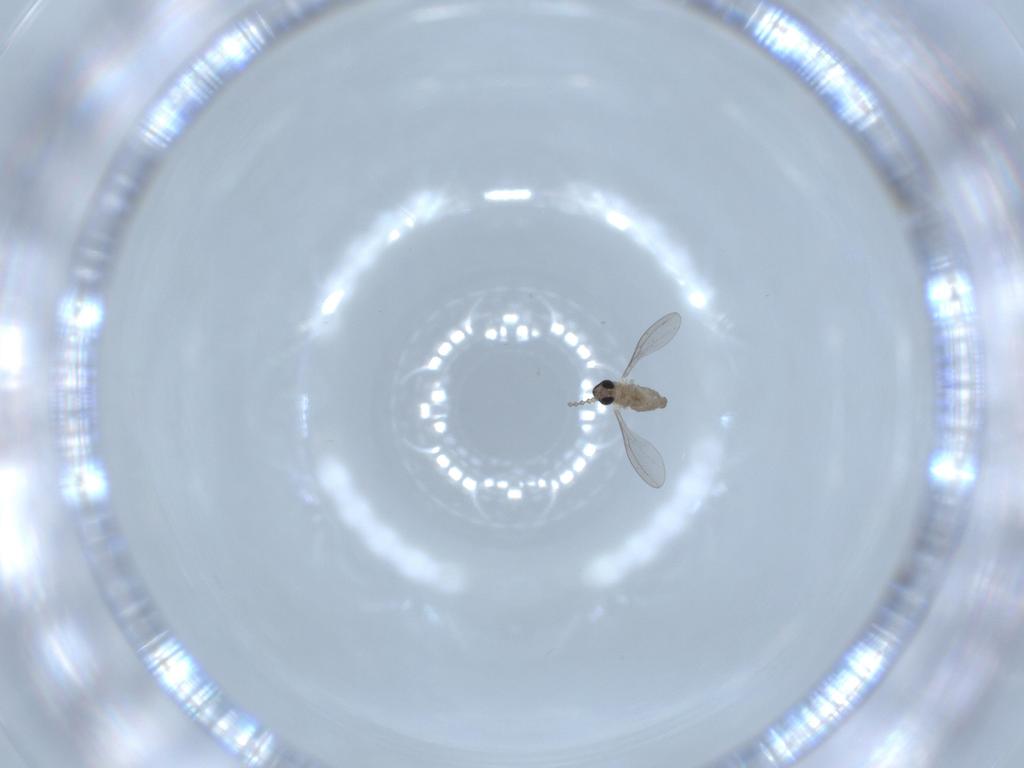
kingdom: Animalia
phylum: Arthropoda
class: Insecta
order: Diptera
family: Cecidomyiidae
